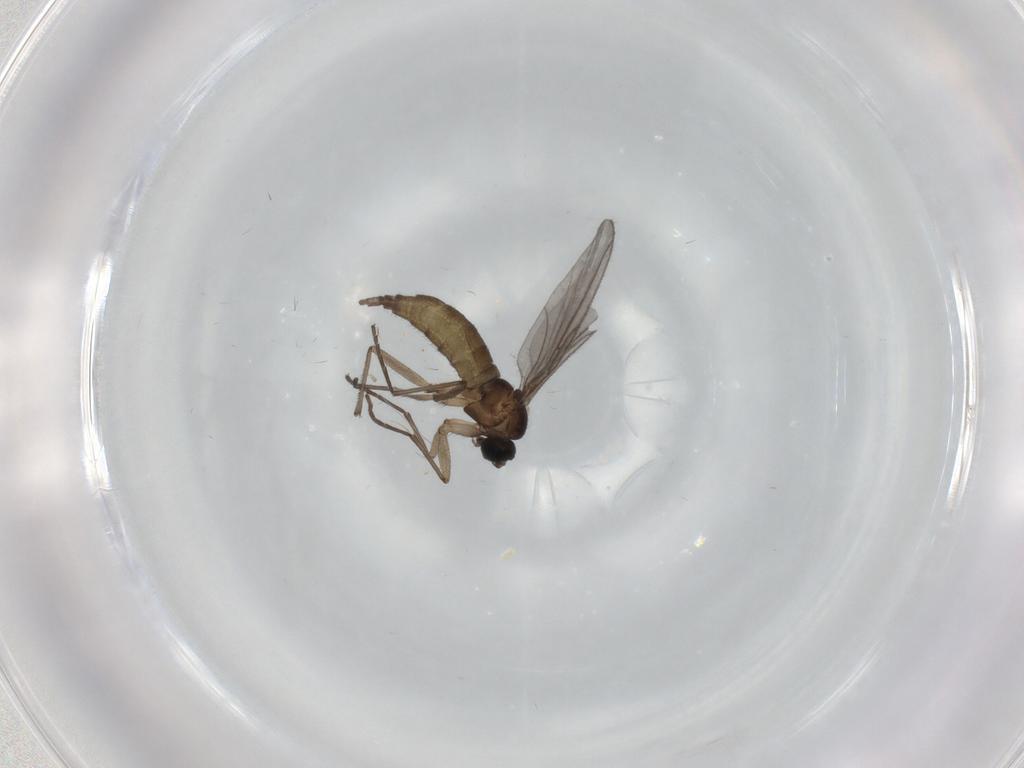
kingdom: Animalia
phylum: Arthropoda
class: Insecta
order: Diptera
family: Sciaridae
